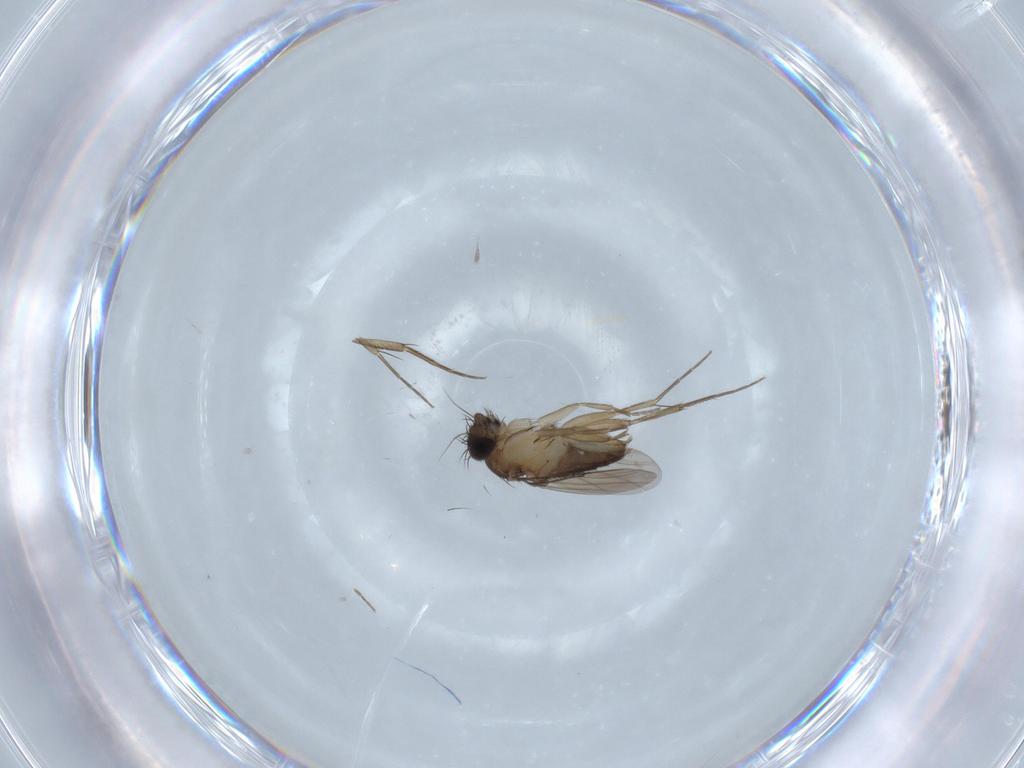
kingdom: Animalia
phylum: Arthropoda
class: Insecta
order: Diptera
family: Phoridae
